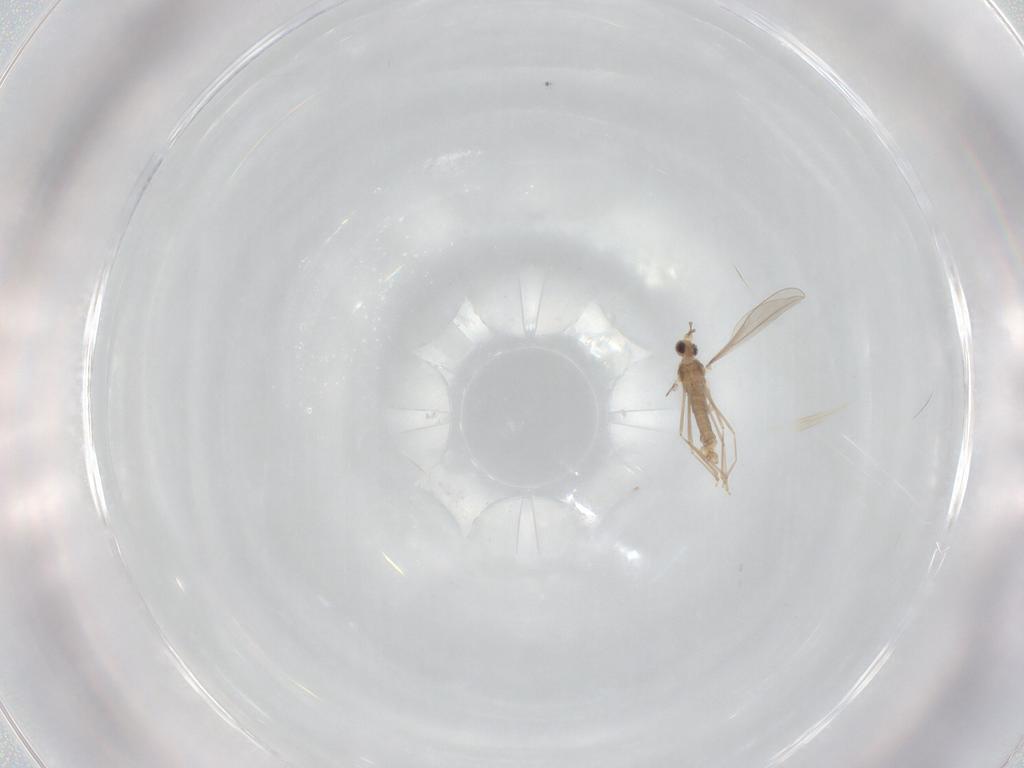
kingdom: Animalia
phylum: Arthropoda
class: Insecta
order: Diptera
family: Cecidomyiidae
